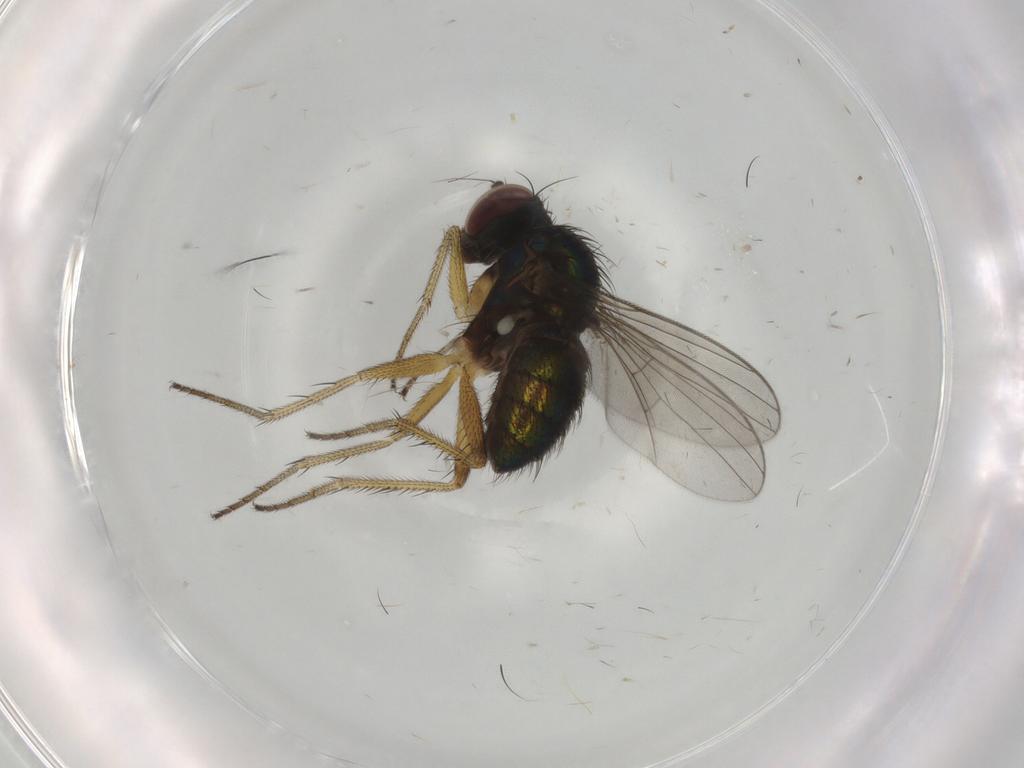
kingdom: Animalia
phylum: Arthropoda
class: Insecta
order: Diptera
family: Dolichopodidae
